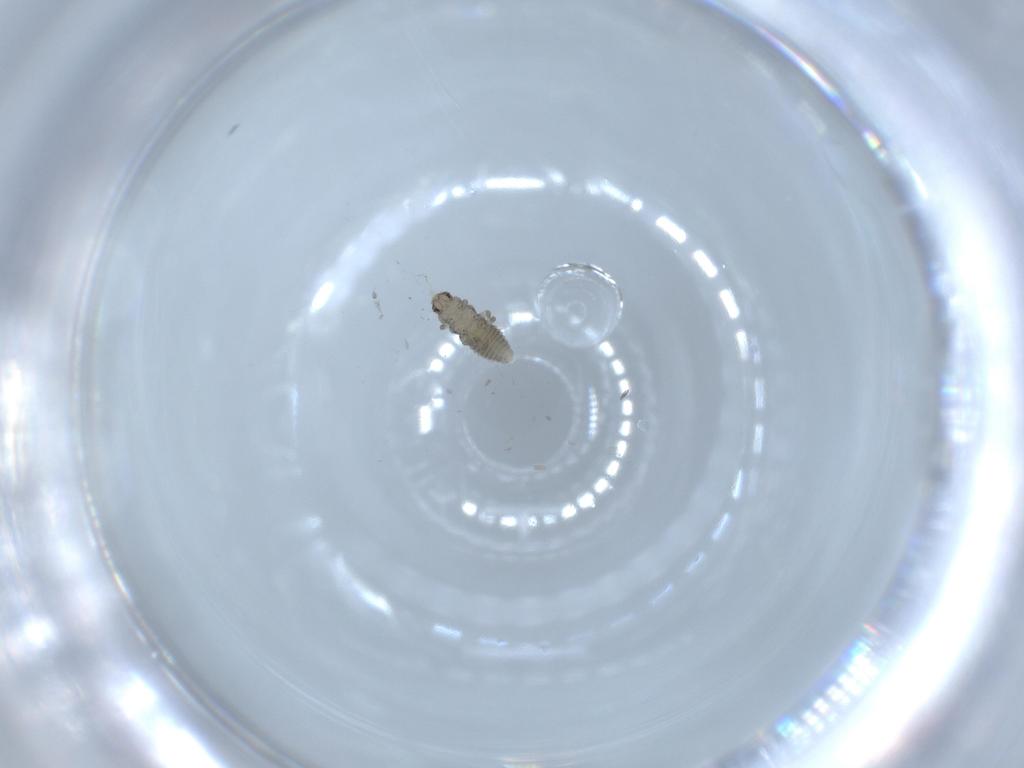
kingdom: Animalia
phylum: Arthropoda
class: Insecta
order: Coleoptera
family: Coccinellidae
